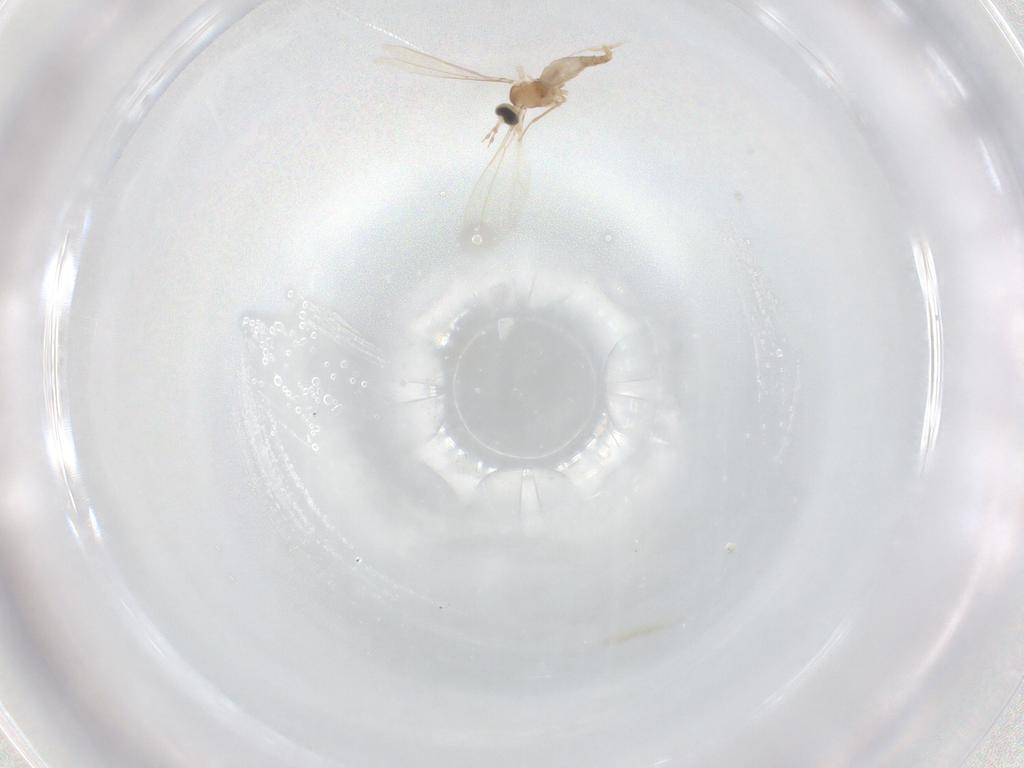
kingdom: Animalia
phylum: Arthropoda
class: Insecta
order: Diptera
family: Cecidomyiidae
